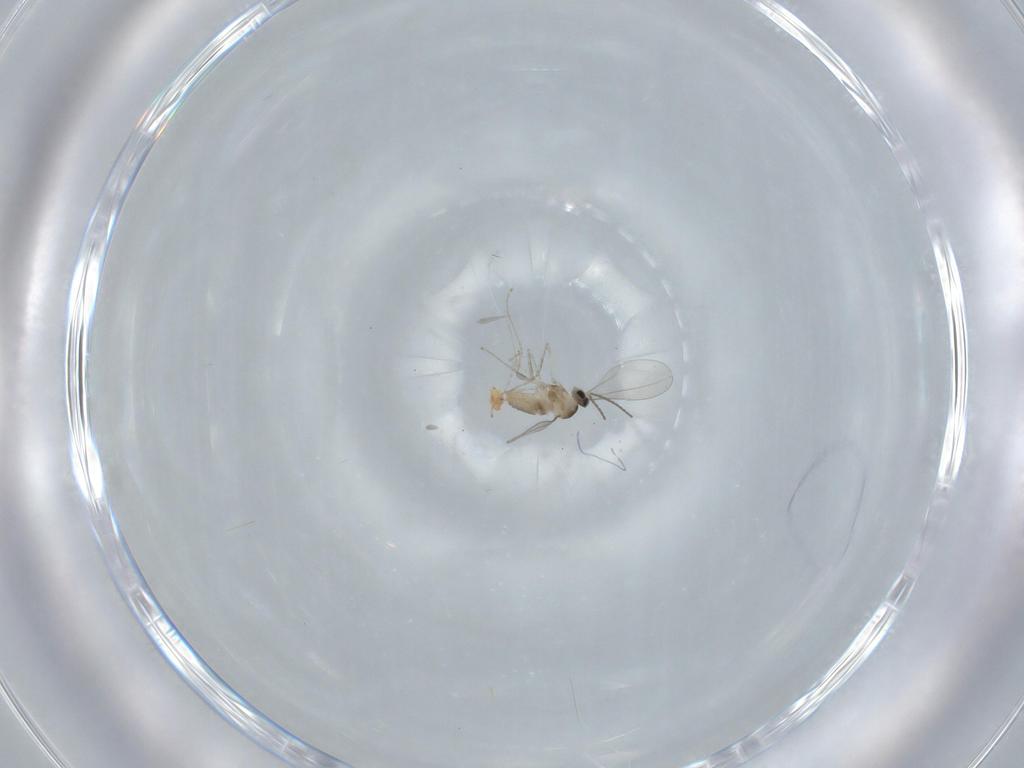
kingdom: Animalia
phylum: Arthropoda
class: Insecta
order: Diptera
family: Cecidomyiidae
